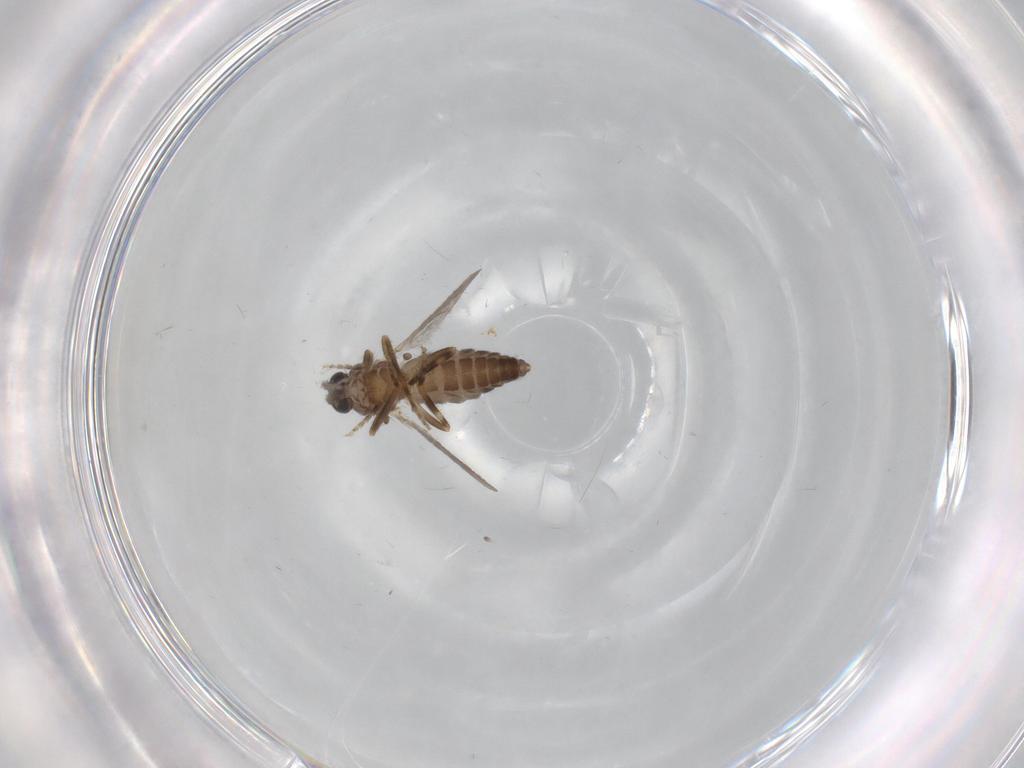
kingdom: Animalia
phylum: Arthropoda
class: Insecta
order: Diptera
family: Ceratopogonidae
